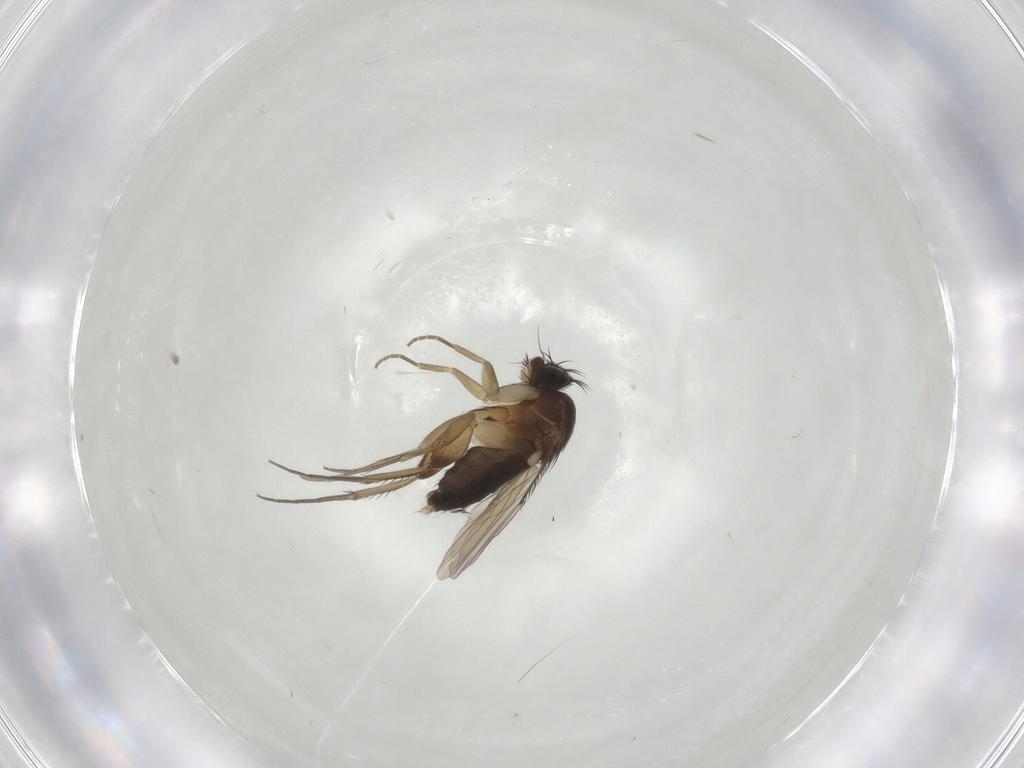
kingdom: Animalia
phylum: Arthropoda
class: Insecta
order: Diptera
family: Phoridae
